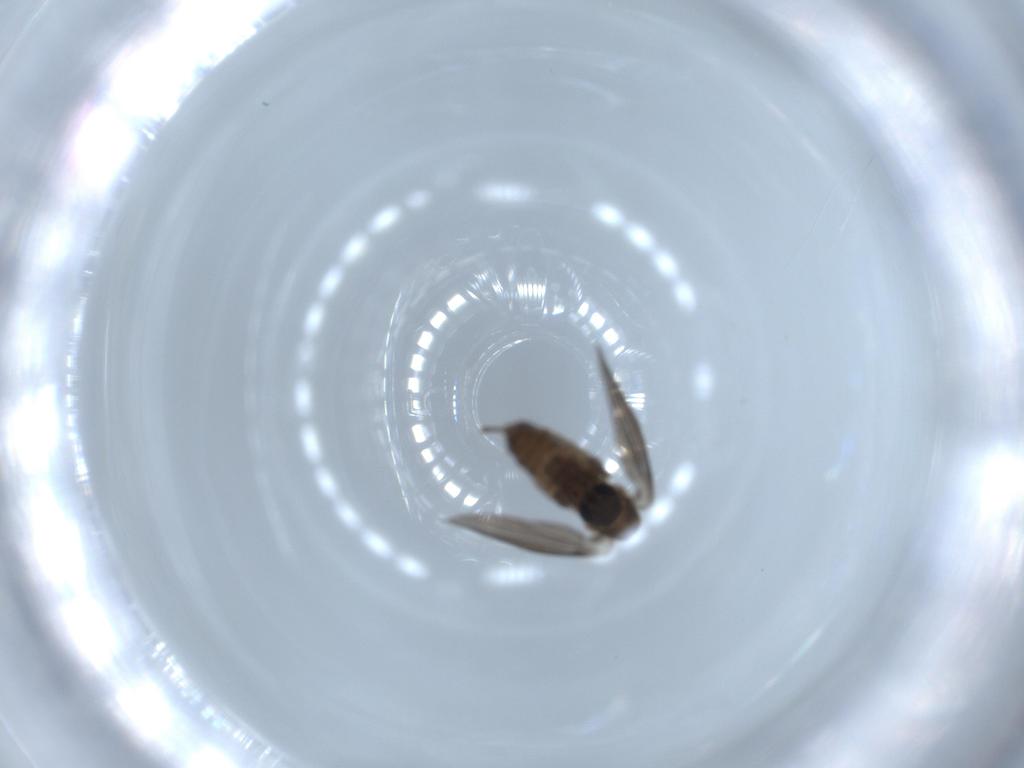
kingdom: Animalia
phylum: Arthropoda
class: Insecta
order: Diptera
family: Psychodidae
